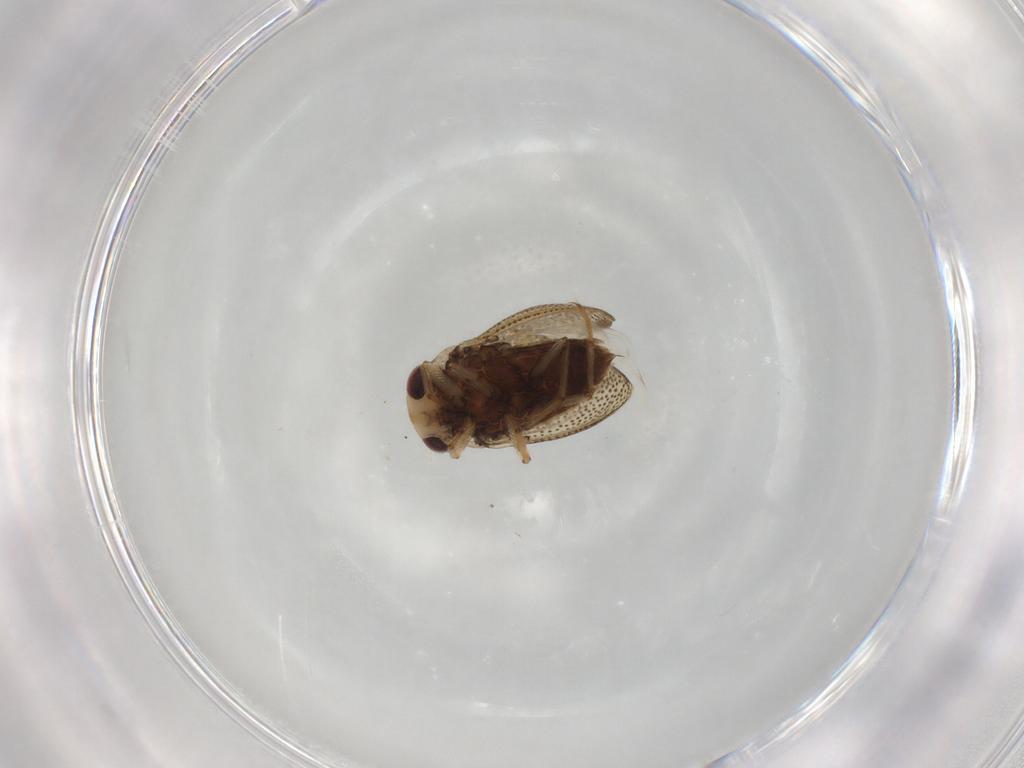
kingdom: Animalia
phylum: Arthropoda
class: Insecta
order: Hemiptera
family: Pleidae
